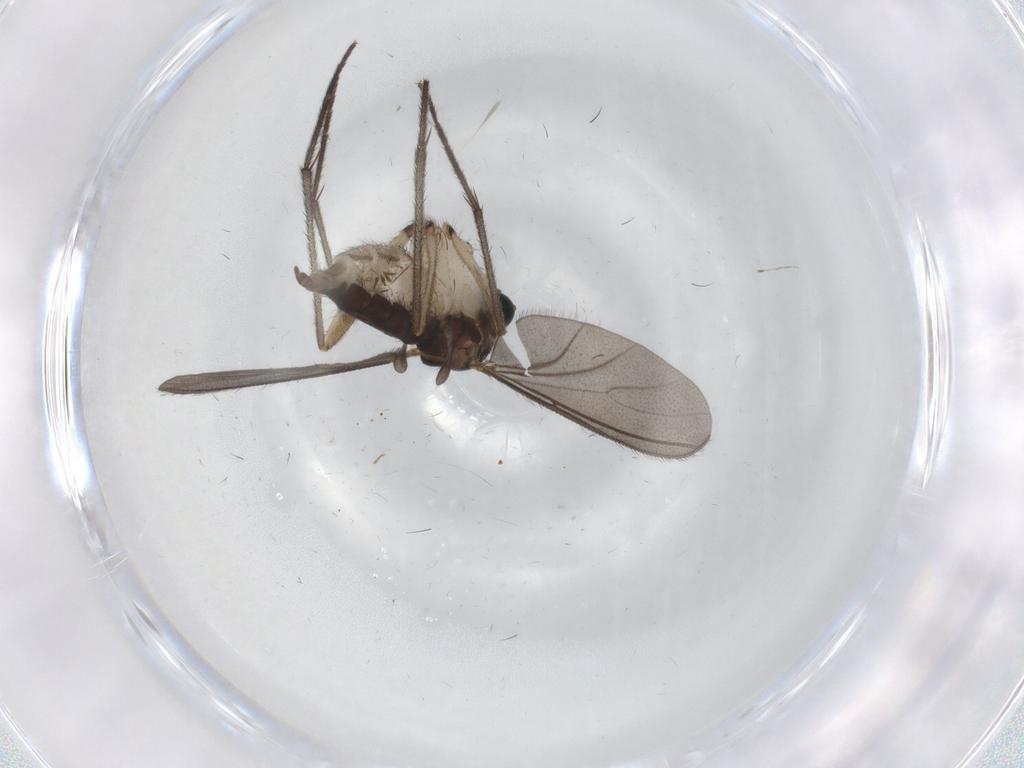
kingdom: Animalia
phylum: Arthropoda
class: Insecta
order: Diptera
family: Sciaridae
